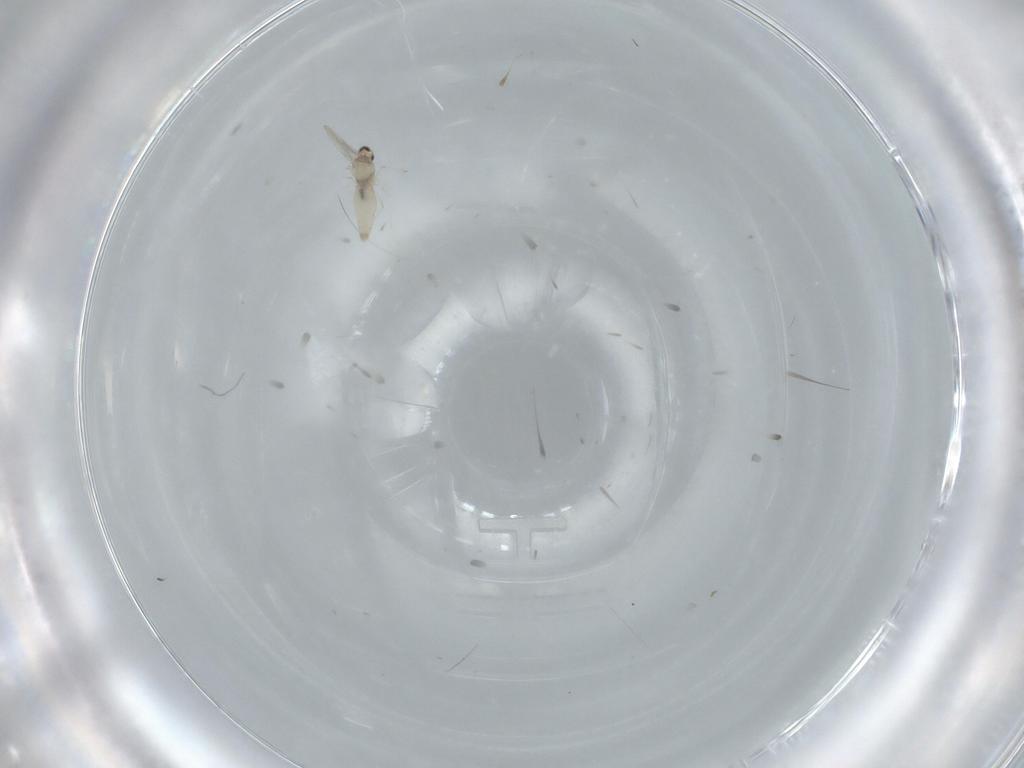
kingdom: Animalia
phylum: Arthropoda
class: Insecta
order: Diptera
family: Cecidomyiidae
